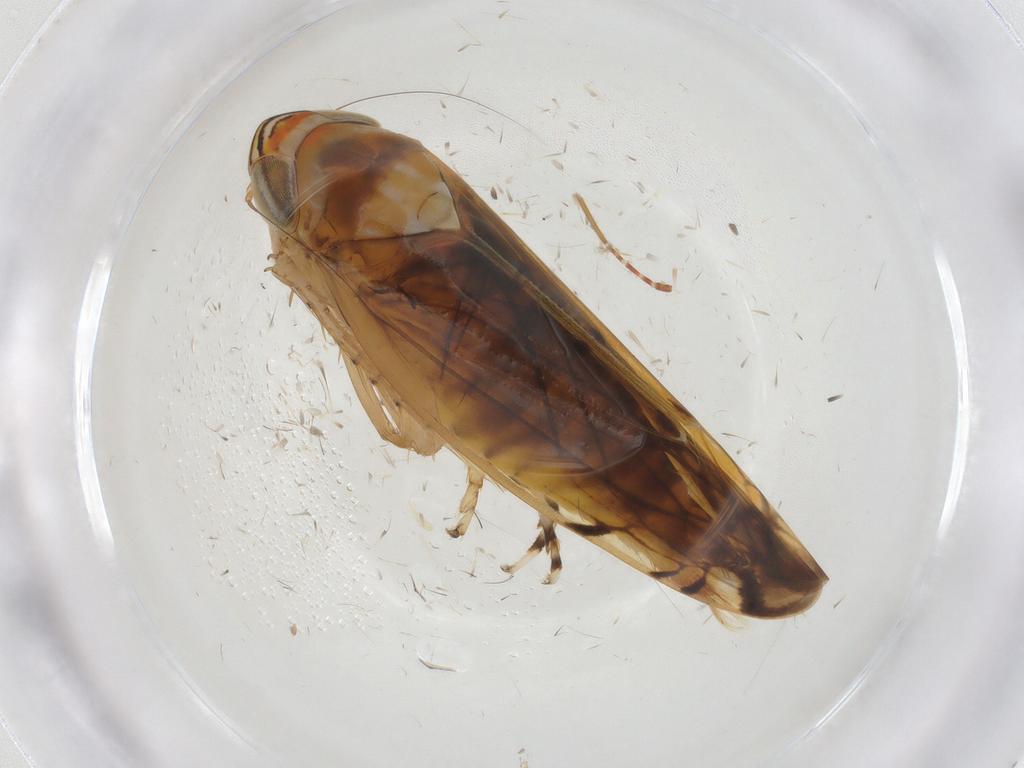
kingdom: Animalia
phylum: Arthropoda
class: Insecta
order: Hemiptera
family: Miridae
